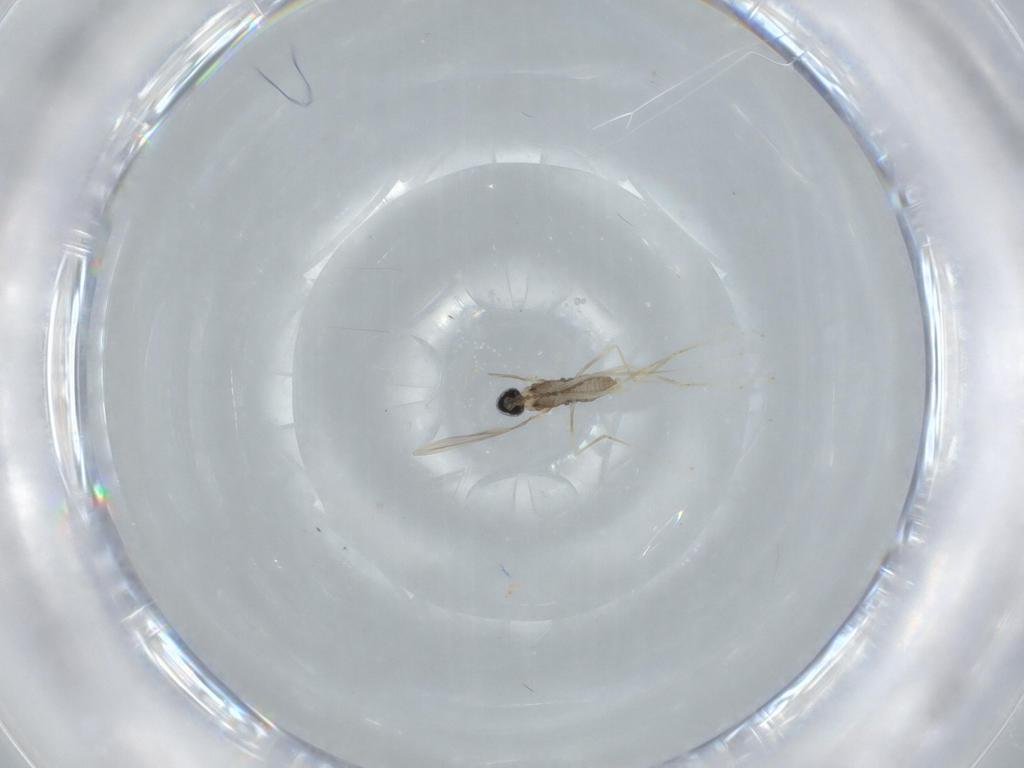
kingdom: Animalia
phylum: Arthropoda
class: Insecta
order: Diptera
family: Cecidomyiidae
